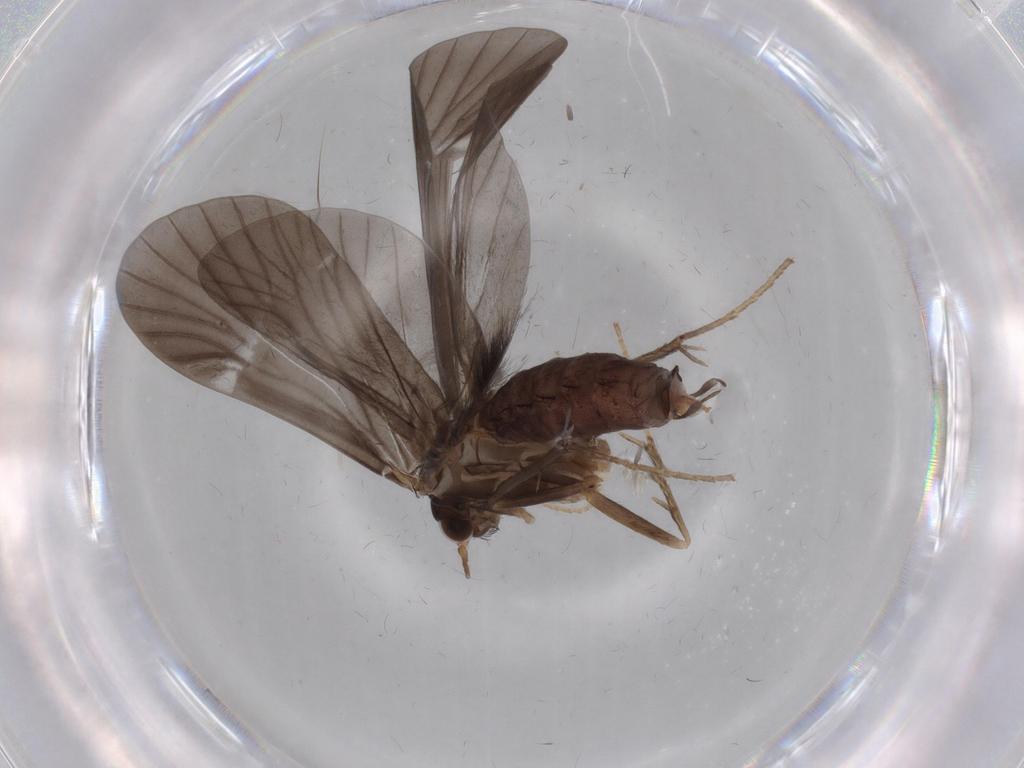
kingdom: Animalia
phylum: Arthropoda
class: Insecta
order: Trichoptera
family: Hydropsychidae
